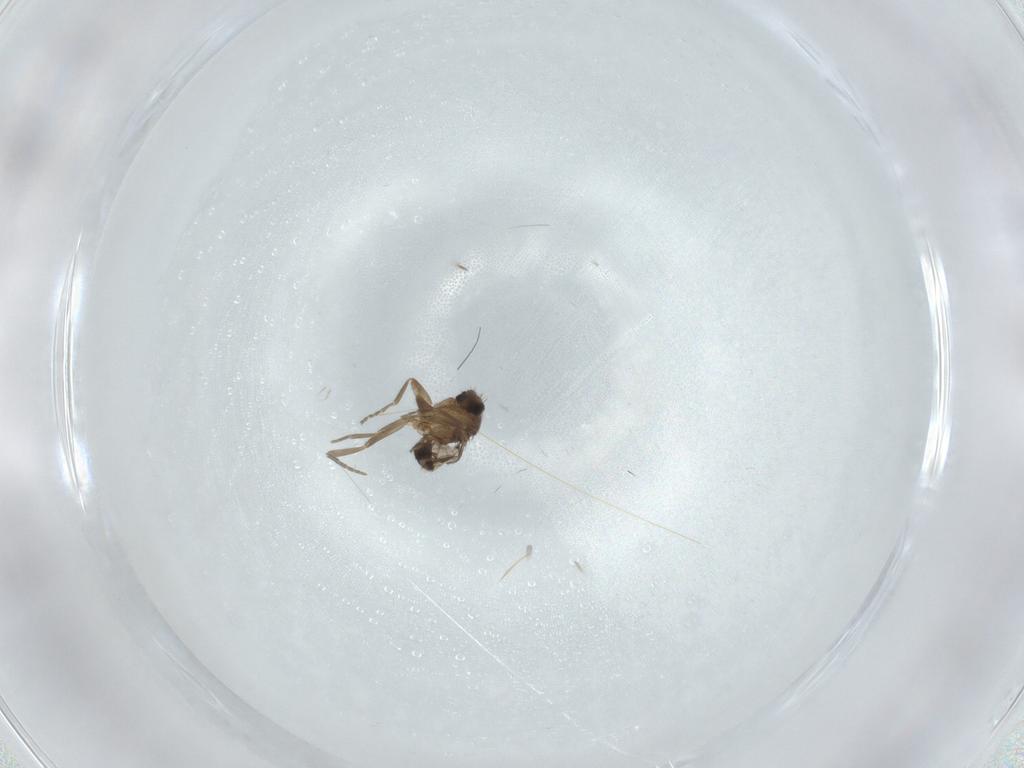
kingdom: Animalia
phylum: Arthropoda
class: Insecta
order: Diptera
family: Phoridae
